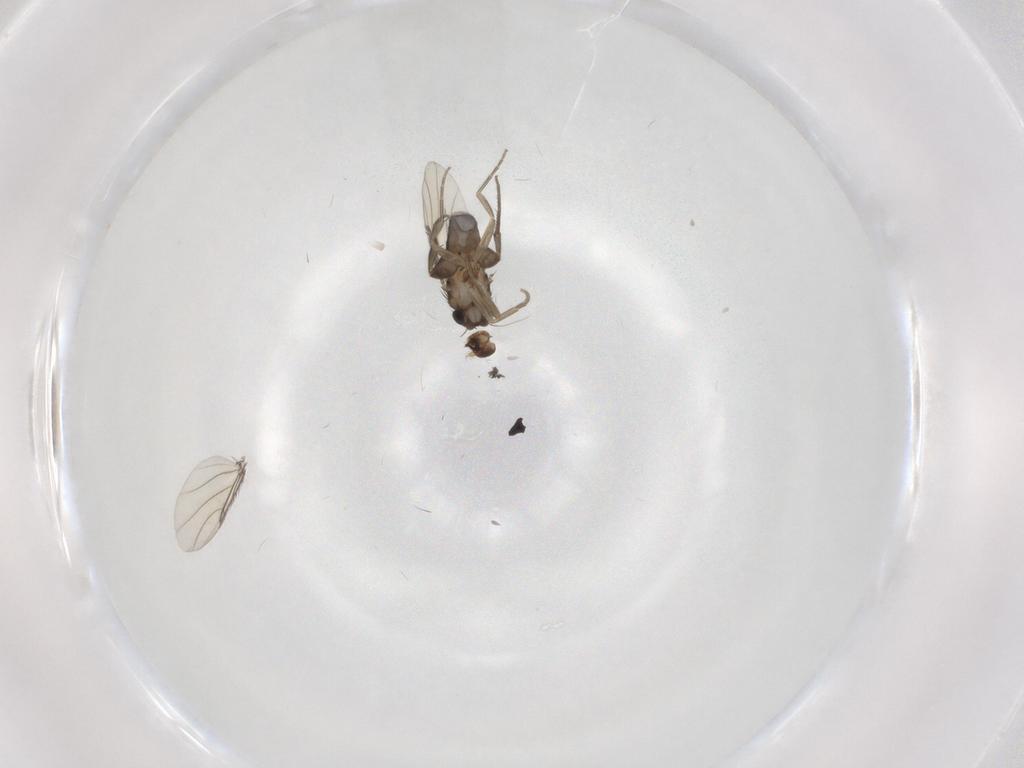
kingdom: Animalia
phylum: Arthropoda
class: Insecta
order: Diptera
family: Phoridae
